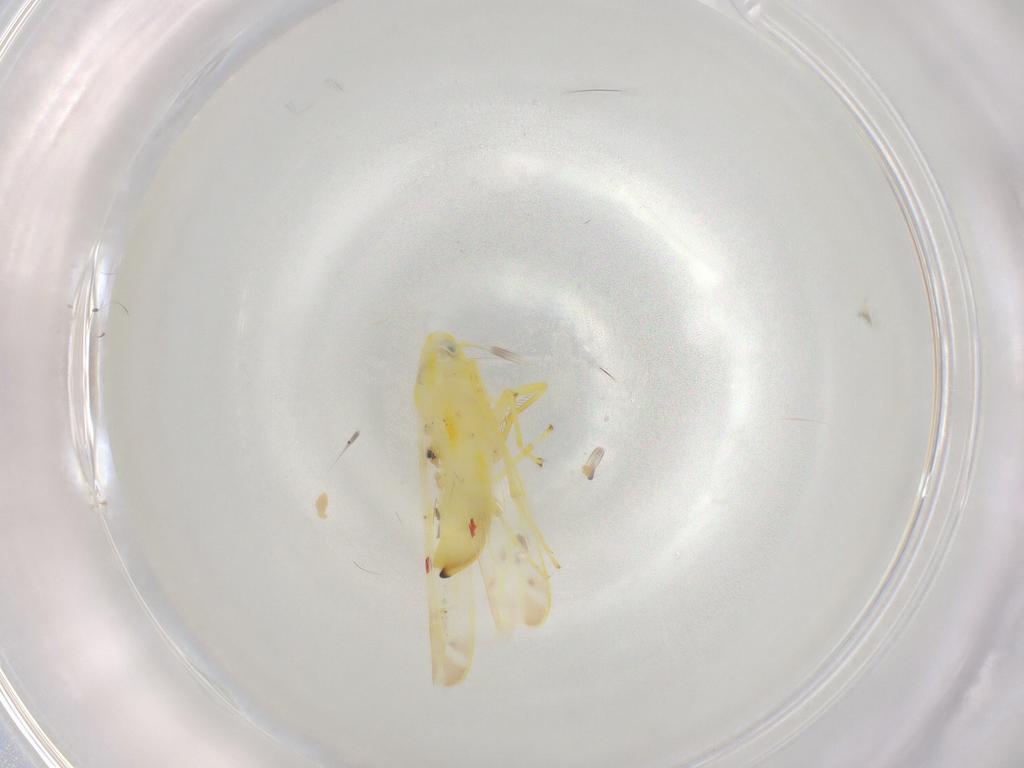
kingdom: Animalia
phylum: Arthropoda
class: Insecta
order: Hemiptera
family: Cicadellidae
